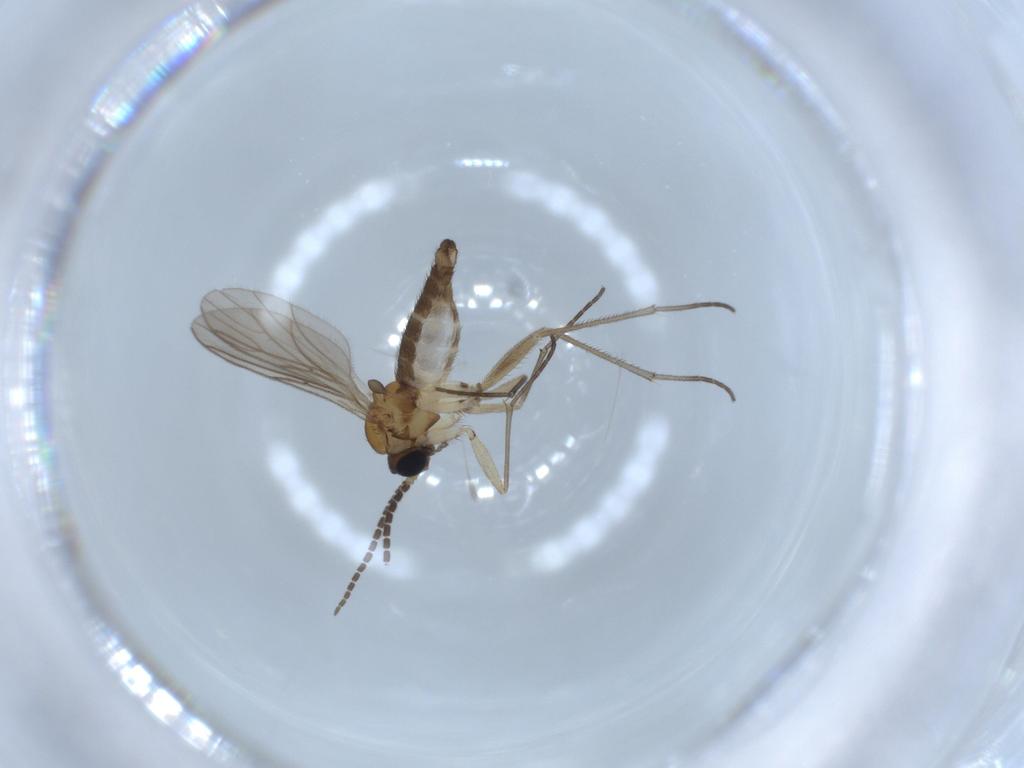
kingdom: Animalia
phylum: Arthropoda
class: Insecta
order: Diptera
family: Sciaridae
